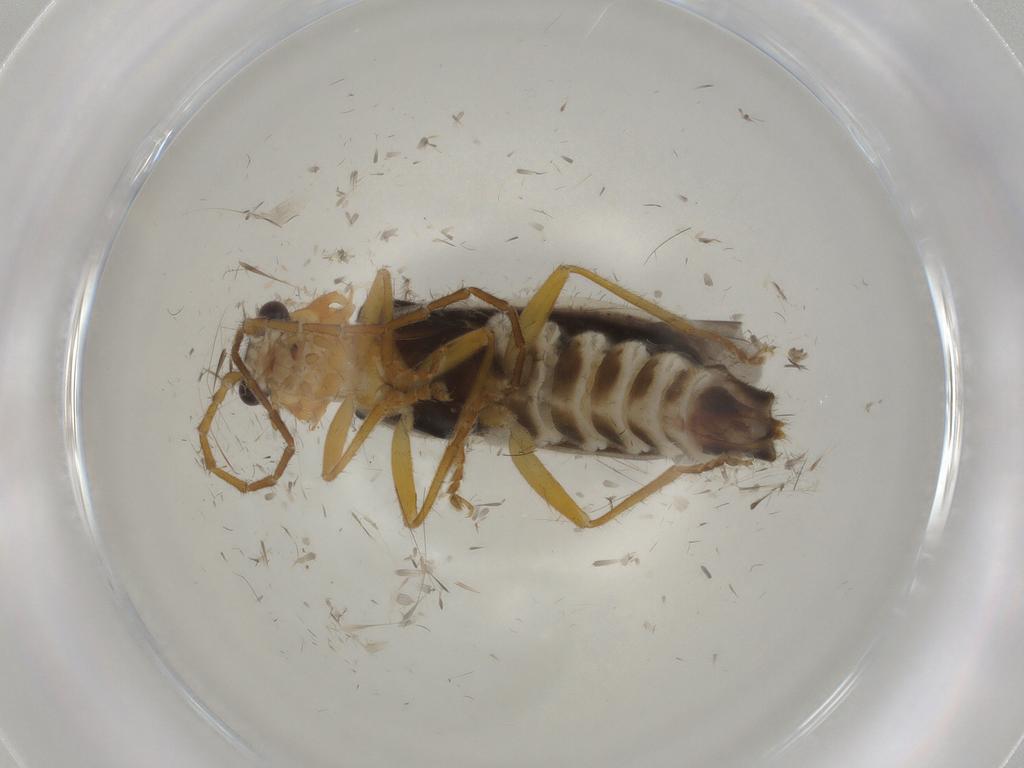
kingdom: Animalia
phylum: Arthropoda
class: Insecta
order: Coleoptera
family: Cantharidae
